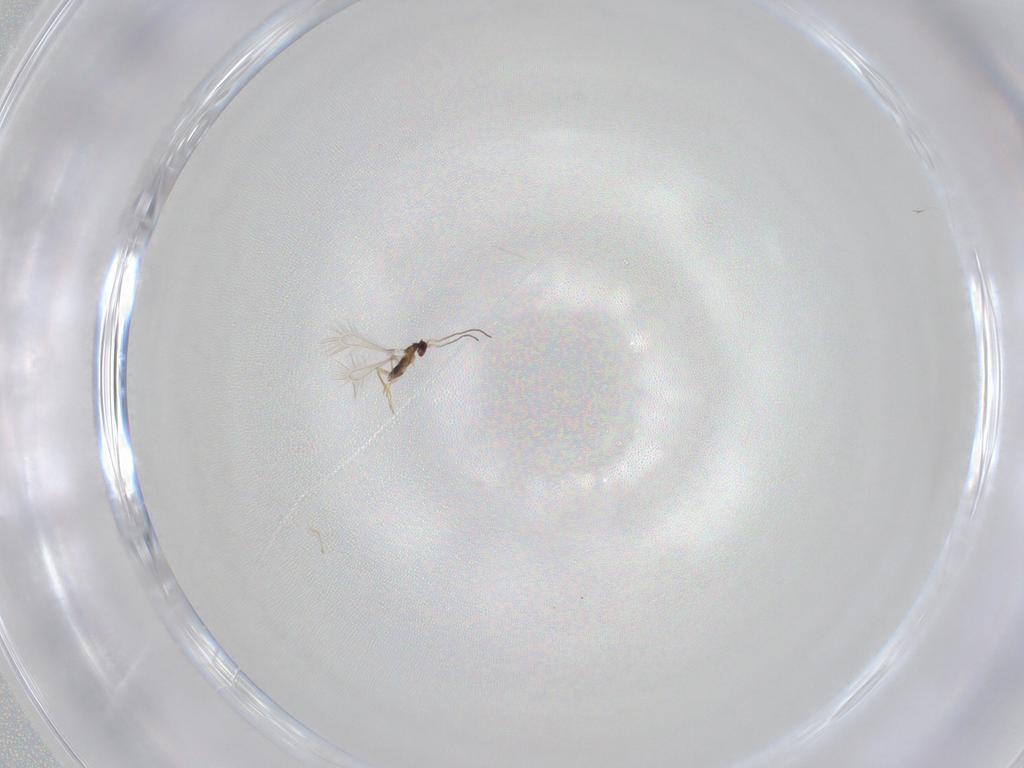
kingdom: Animalia
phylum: Arthropoda
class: Insecta
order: Hymenoptera
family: Mymaridae
